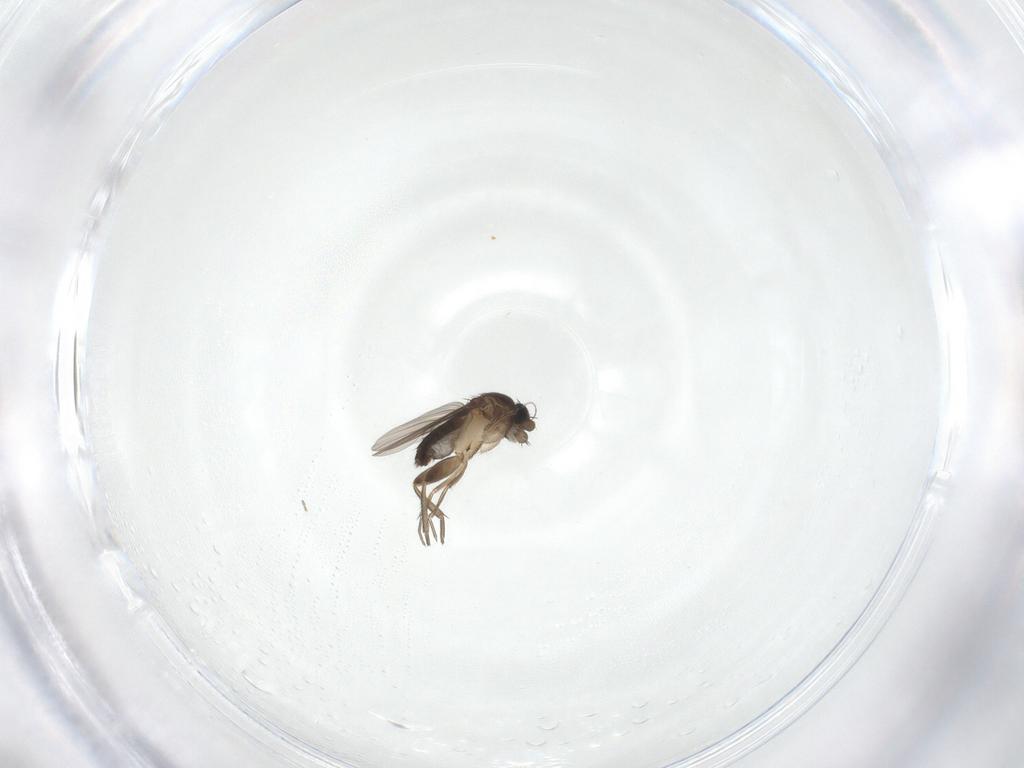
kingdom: Animalia
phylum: Arthropoda
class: Insecta
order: Diptera
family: Phoridae
